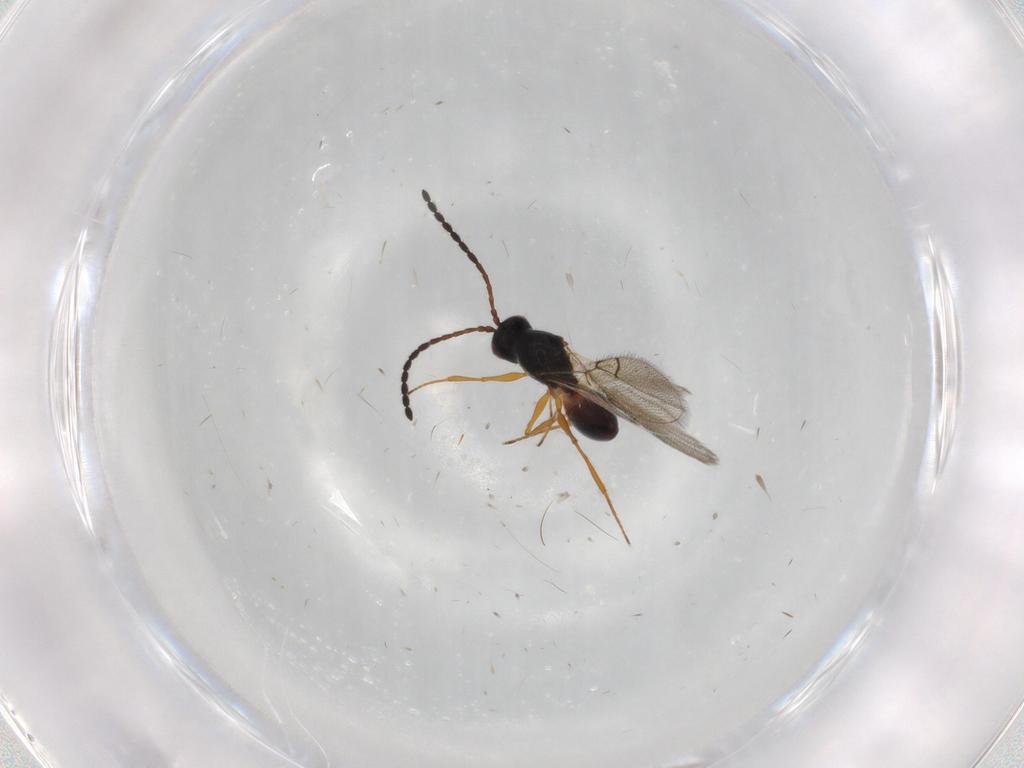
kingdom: Animalia
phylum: Arthropoda
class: Insecta
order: Hymenoptera
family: Figitidae
